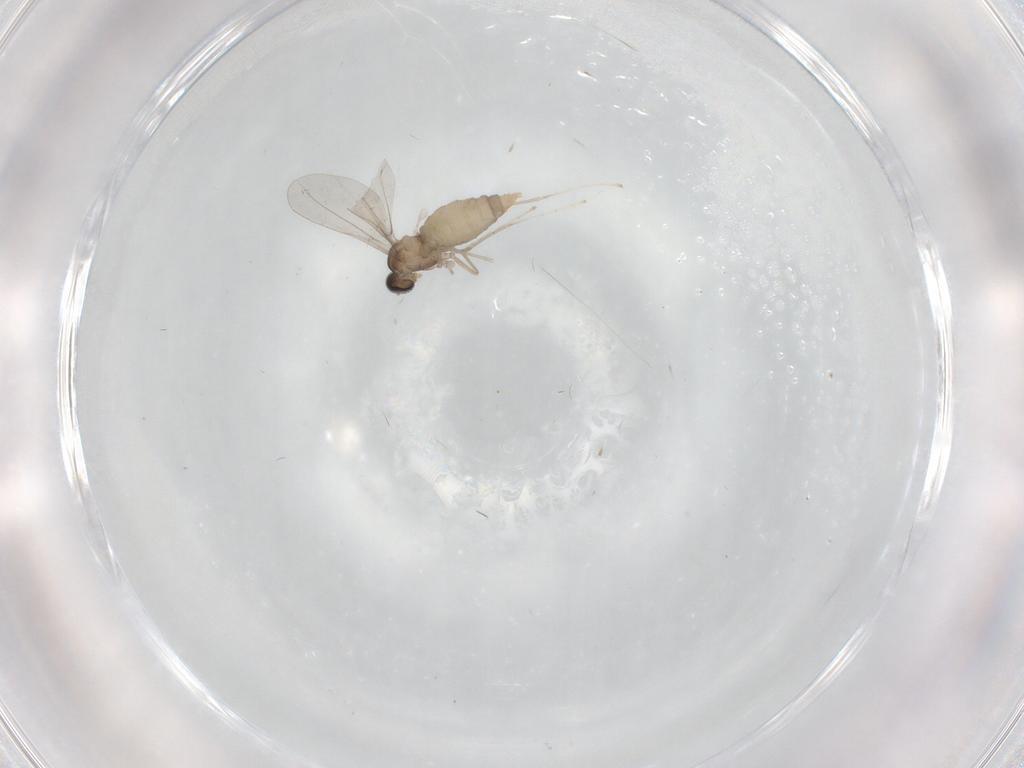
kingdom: Animalia
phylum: Arthropoda
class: Insecta
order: Diptera
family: Cecidomyiidae
